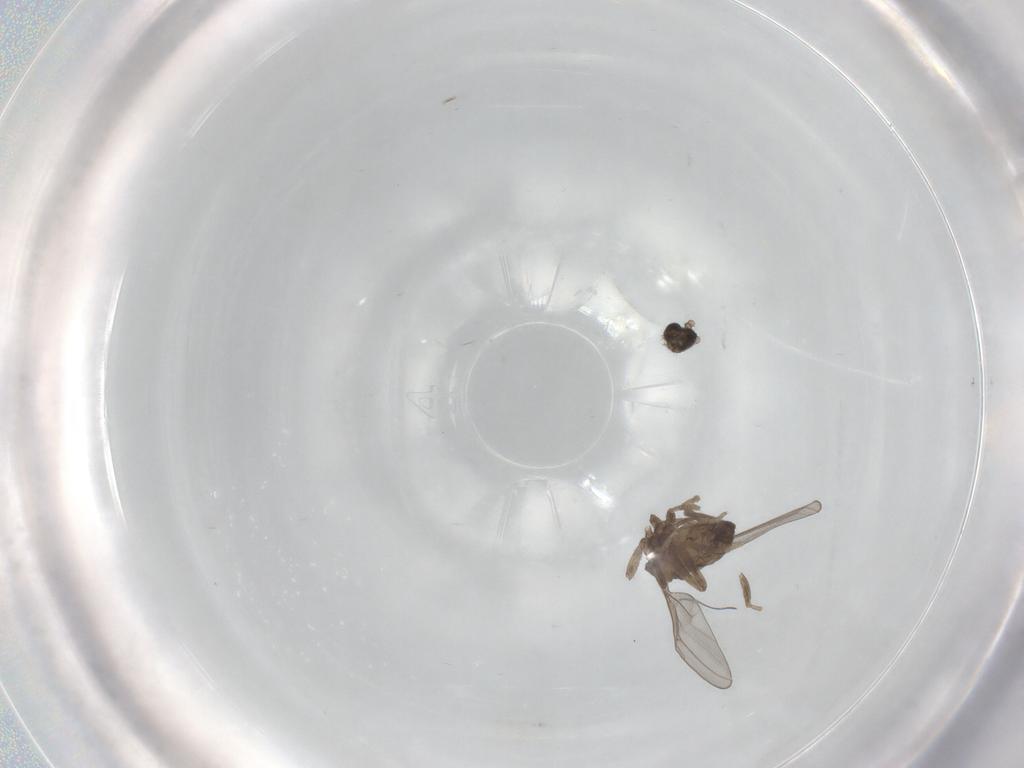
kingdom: Animalia
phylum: Arthropoda
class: Insecta
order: Diptera
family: Cecidomyiidae
